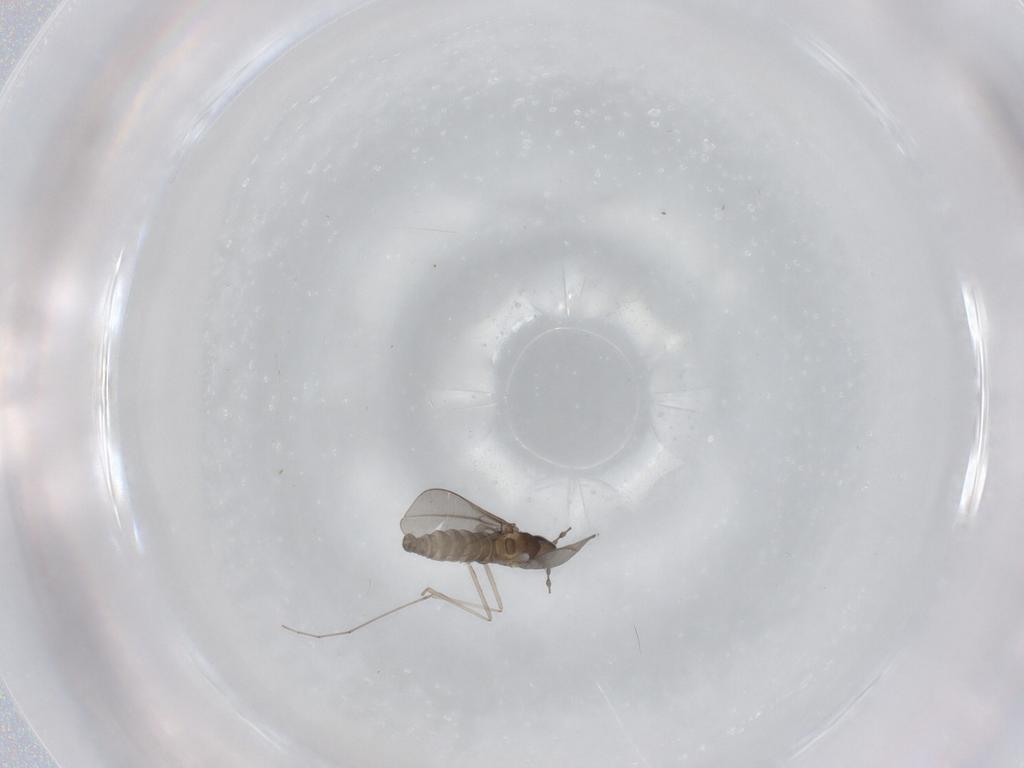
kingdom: Animalia
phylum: Arthropoda
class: Insecta
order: Diptera
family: Cecidomyiidae
